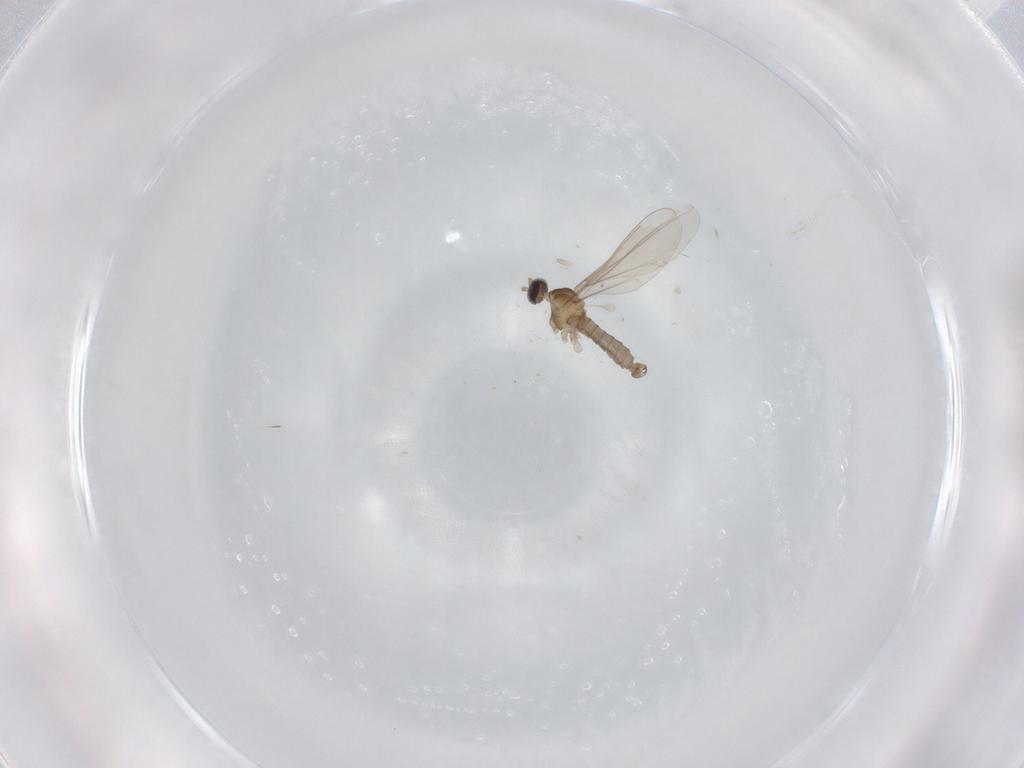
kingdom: Animalia
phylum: Arthropoda
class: Insecta
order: Diptera
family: Cecidomyiidae
